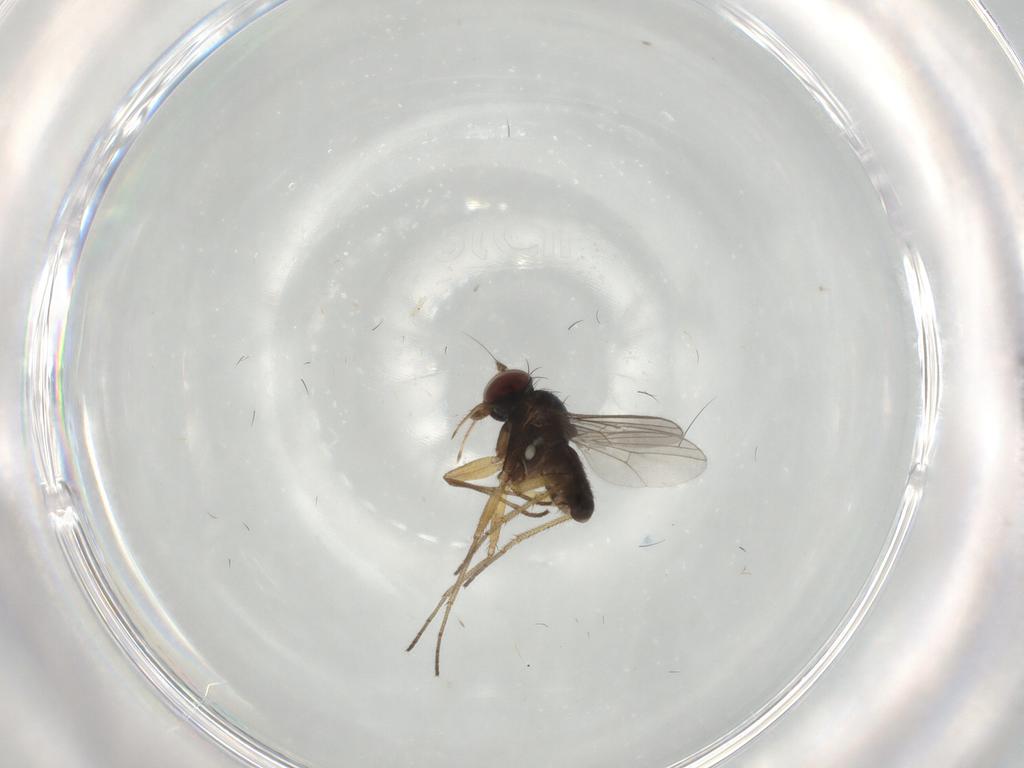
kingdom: Animalia
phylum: Arthropoda
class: Insecta
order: Diptera
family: Dolichopodidae
